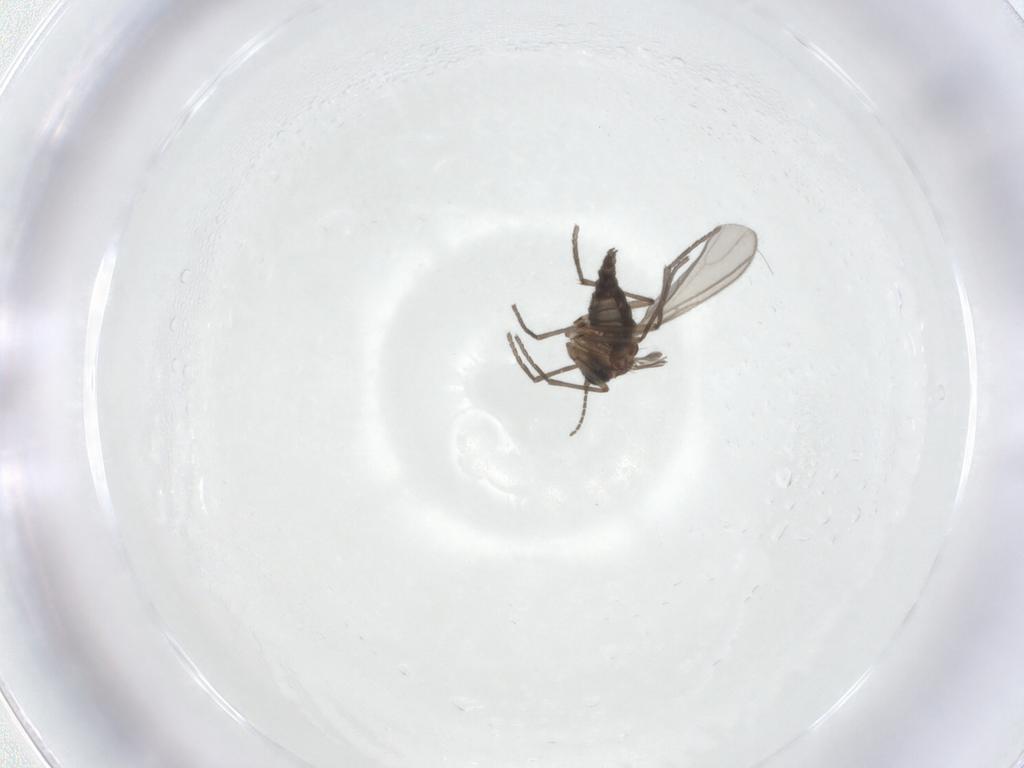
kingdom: Animalia
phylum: Arthropoda
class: Insecta
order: Diptera
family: Sciaridae
